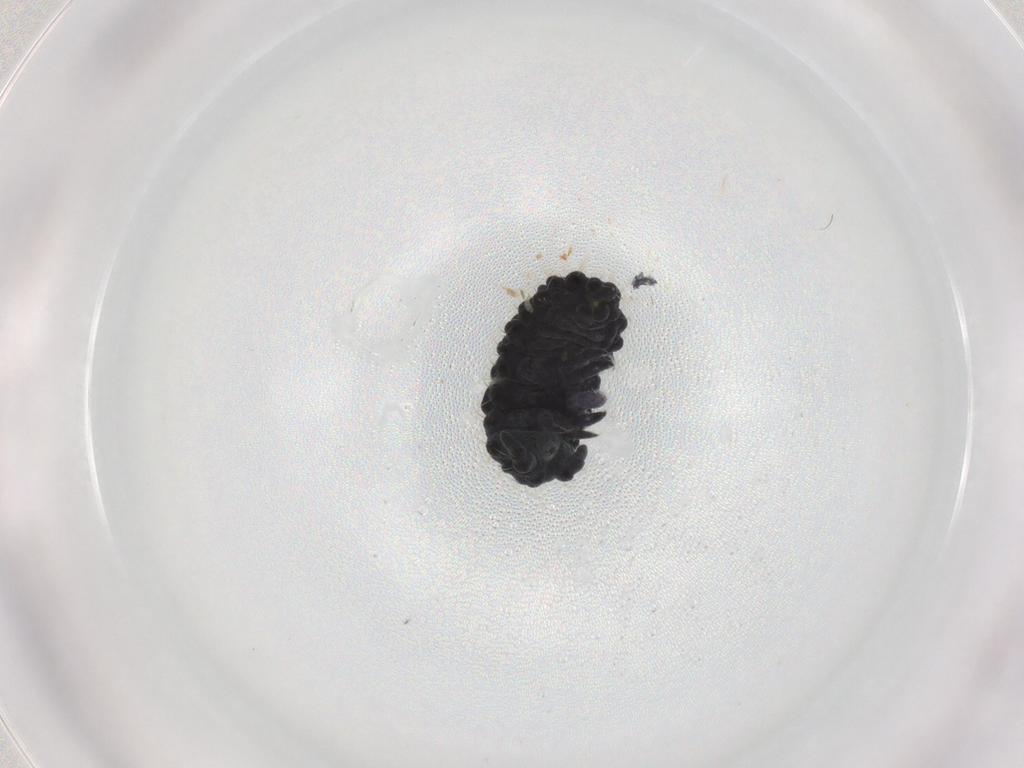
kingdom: Animalia
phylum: Arthropoda
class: Collembola
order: Poduromorpha
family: Neanuridae
